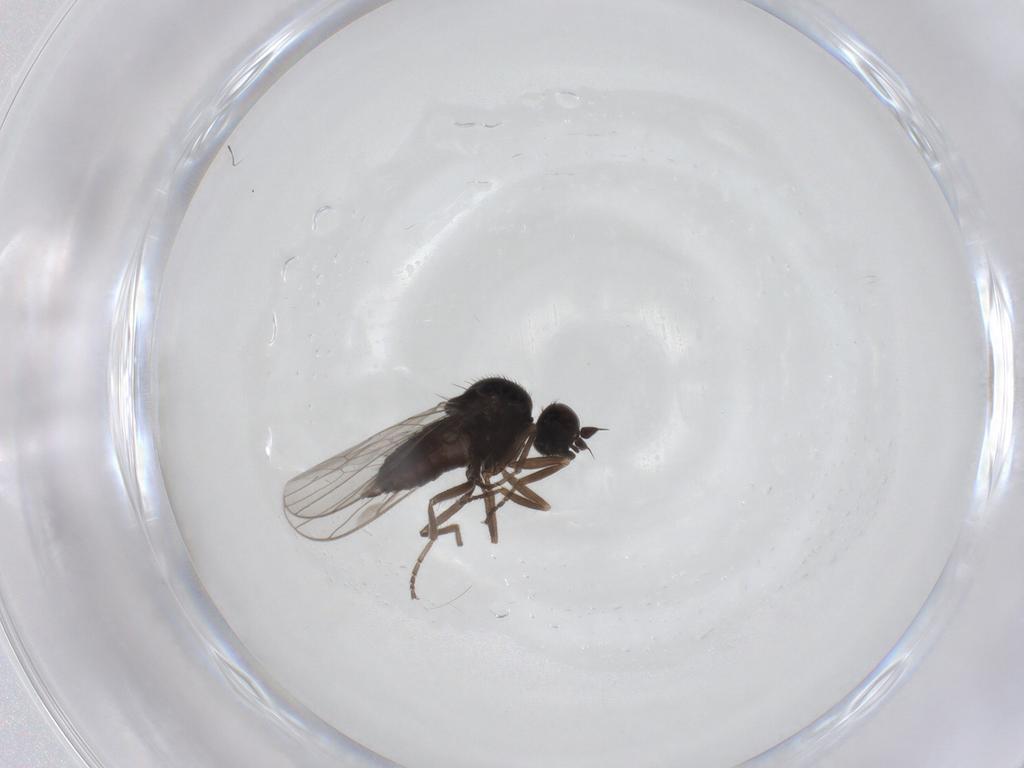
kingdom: Animalia
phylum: Arthropoda
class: Insecta
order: Diptera
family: Hybotidae
